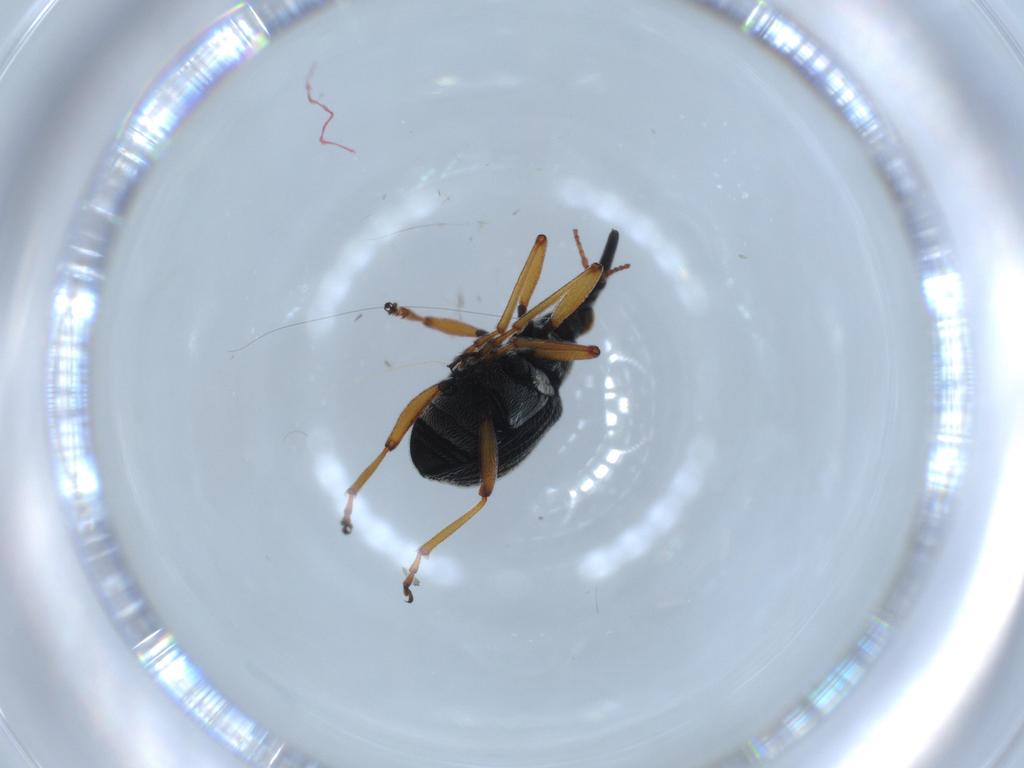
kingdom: Animalia
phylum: Arthropoda
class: Insecta
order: Coleoptera
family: Brentidae
